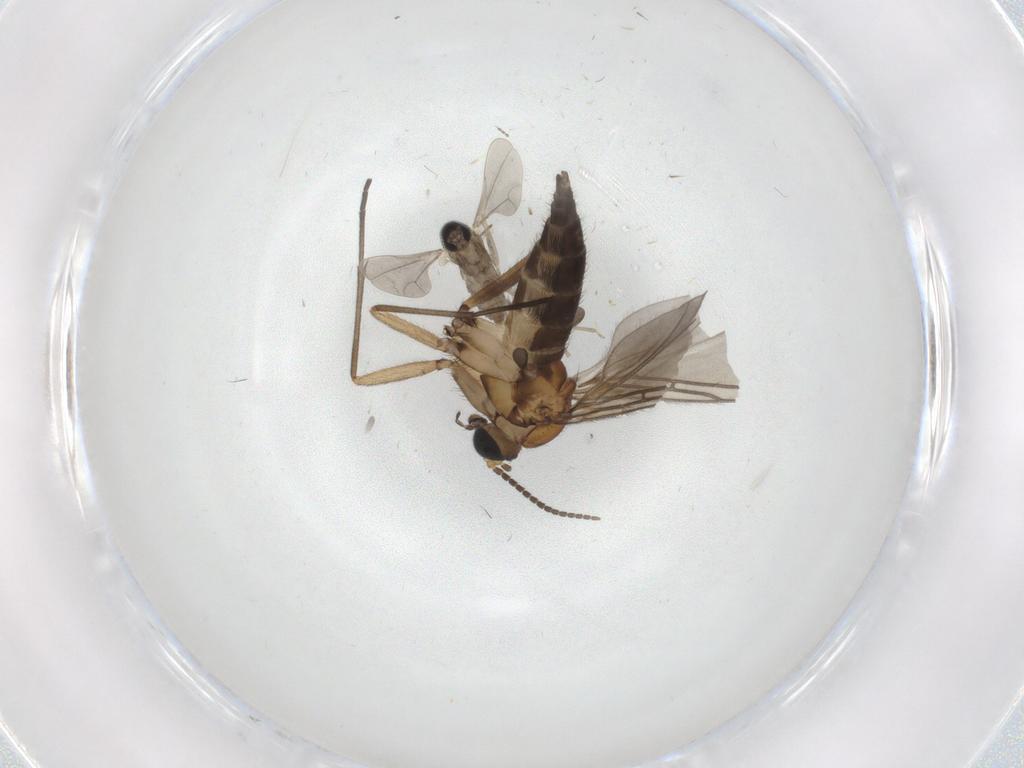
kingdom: Animalia
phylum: Arthropoda
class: Insecta
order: Diptera
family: Cecidomyiidae
